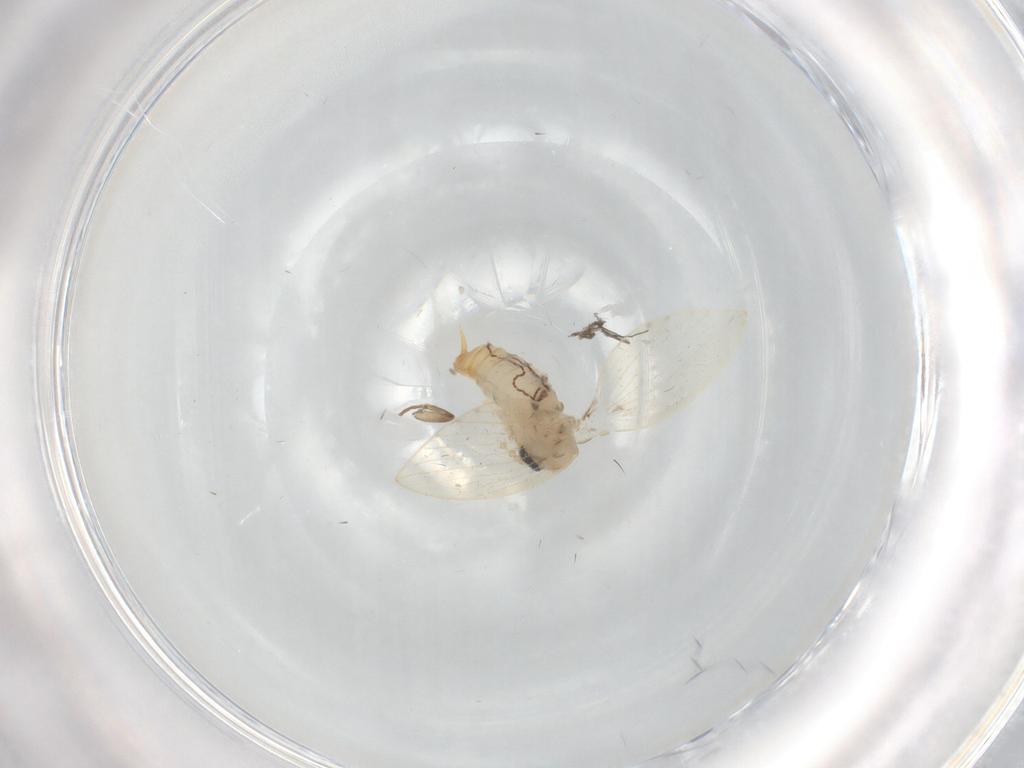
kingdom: Animalia
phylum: Arthropoda
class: Insecta
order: Diptera
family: Psychodidae
